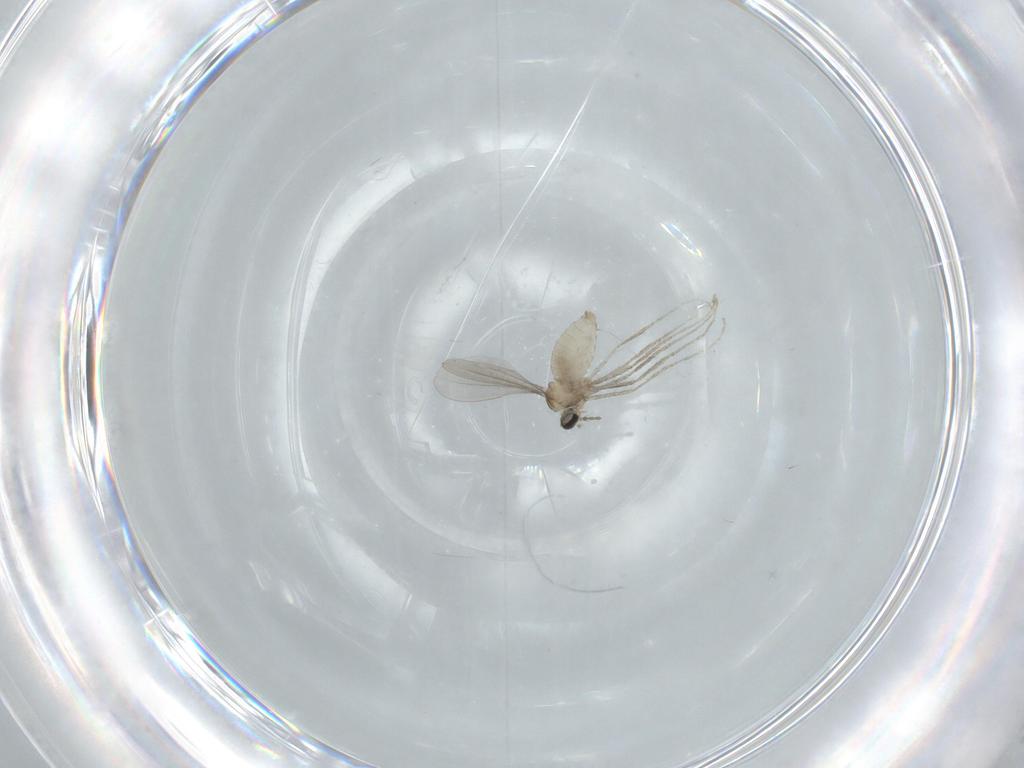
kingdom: Animalia
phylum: Arthropoda
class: Insecta
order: Diptera
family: Cecidomyiidae
